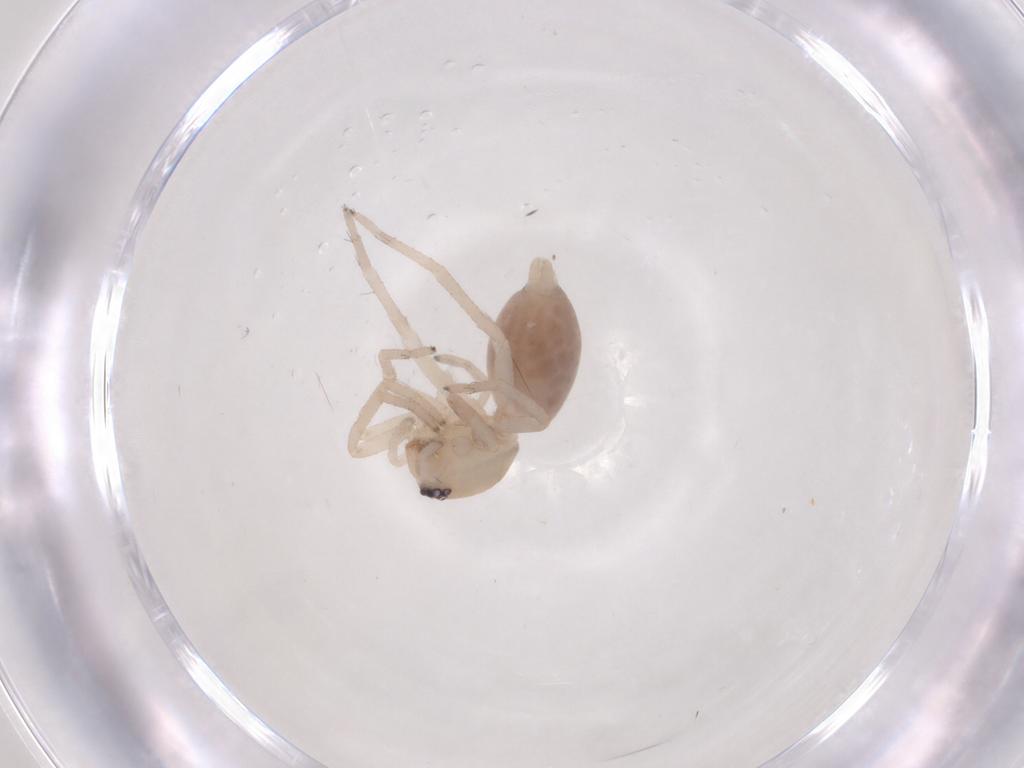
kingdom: Animalia
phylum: Arthropoda
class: Arachnida
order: Araneae
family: Clubionidae
